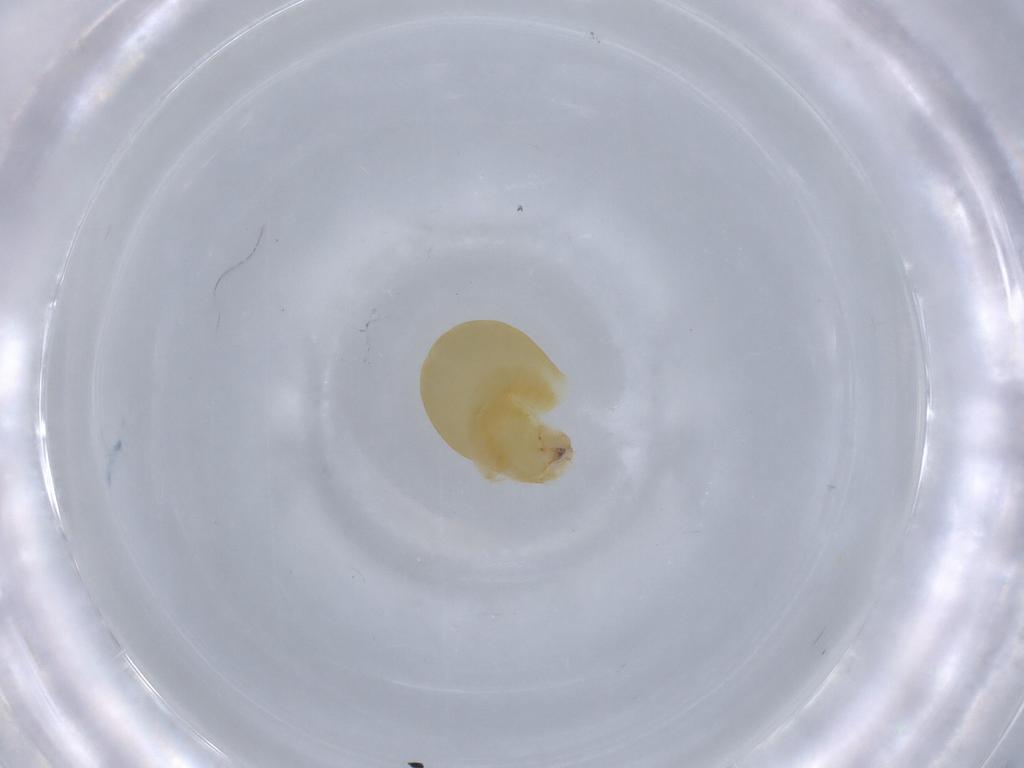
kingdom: Animalia
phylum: Arthropoda
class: Insecta
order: Hymenoptera
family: Dryinidae
